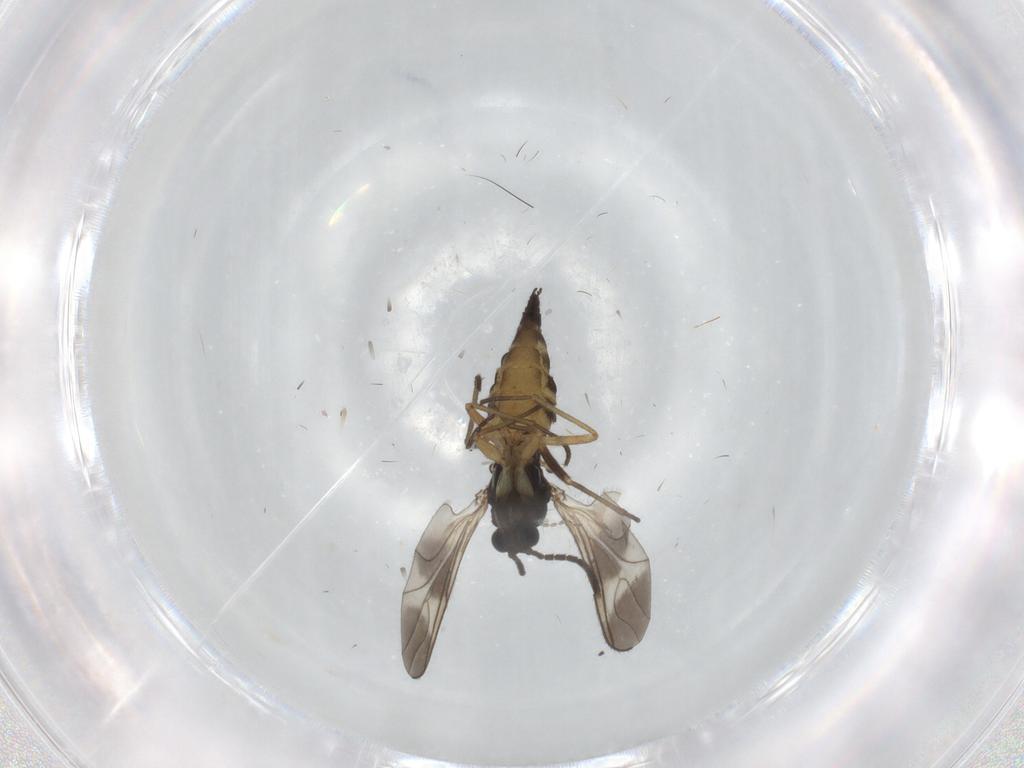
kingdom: Animalia
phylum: Arthropoda
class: Insecta
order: Diptera
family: Sciaridae
